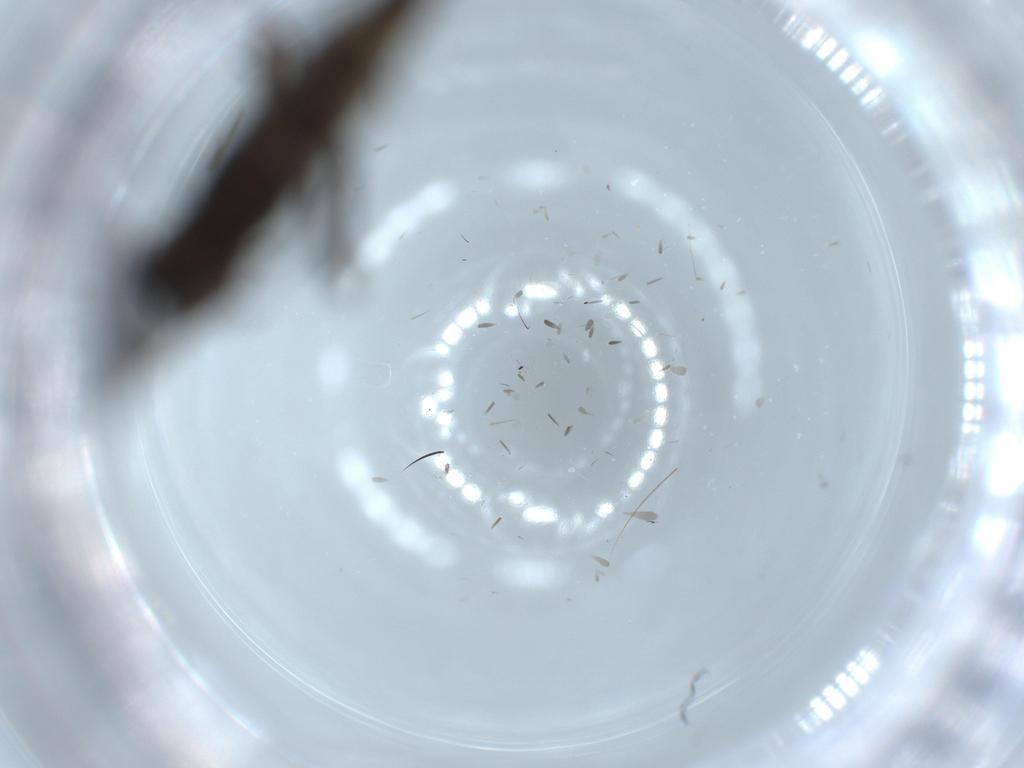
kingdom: Animalia
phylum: Arthropoda
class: Insecta
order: Diptera
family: Sciaridae
